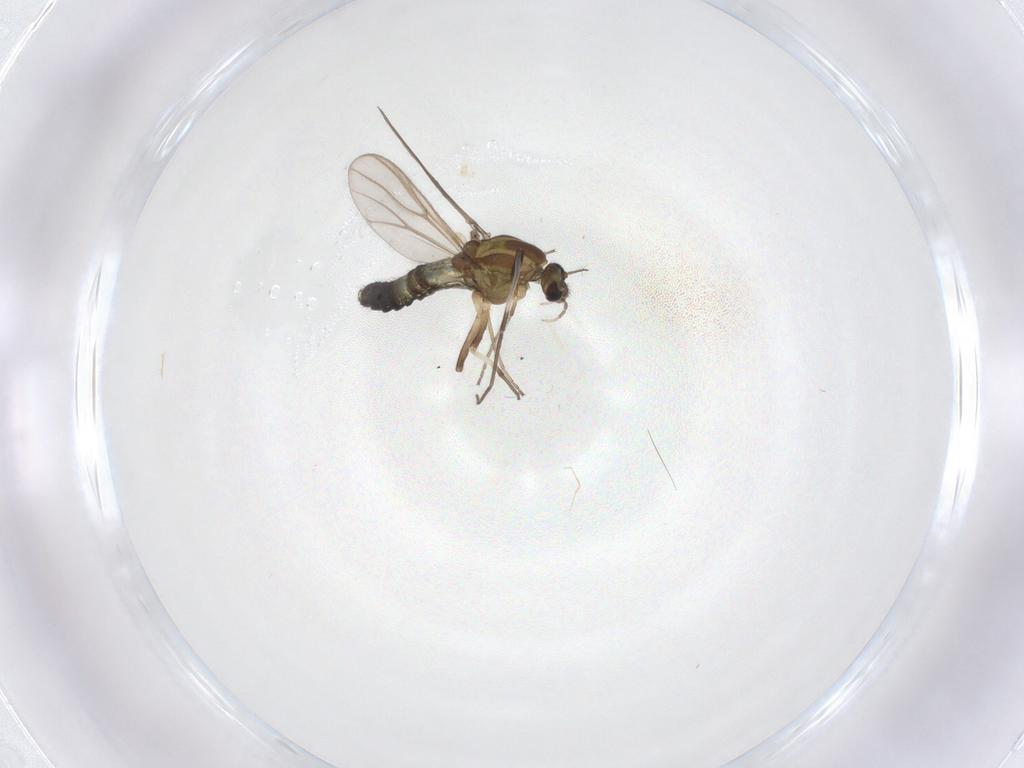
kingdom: Animalia
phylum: Arthropoda
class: Insecta
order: Diptera
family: Chironomidae
